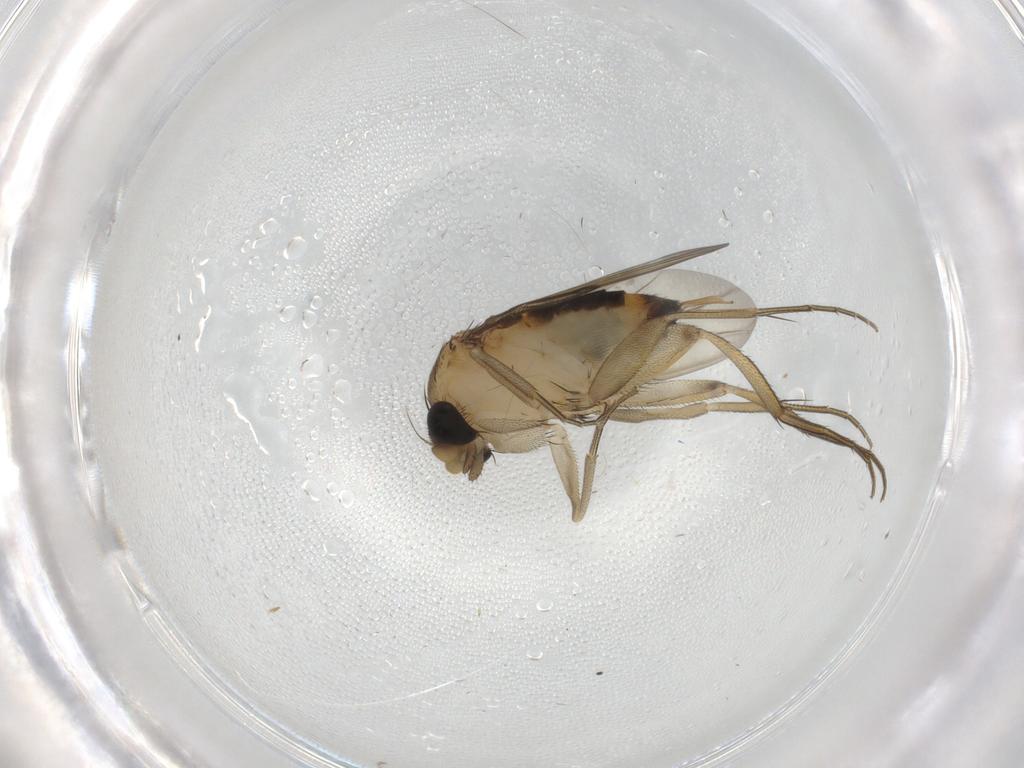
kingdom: Animalia
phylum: Arthropoda
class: Insecta
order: Diptera
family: Phoridae
